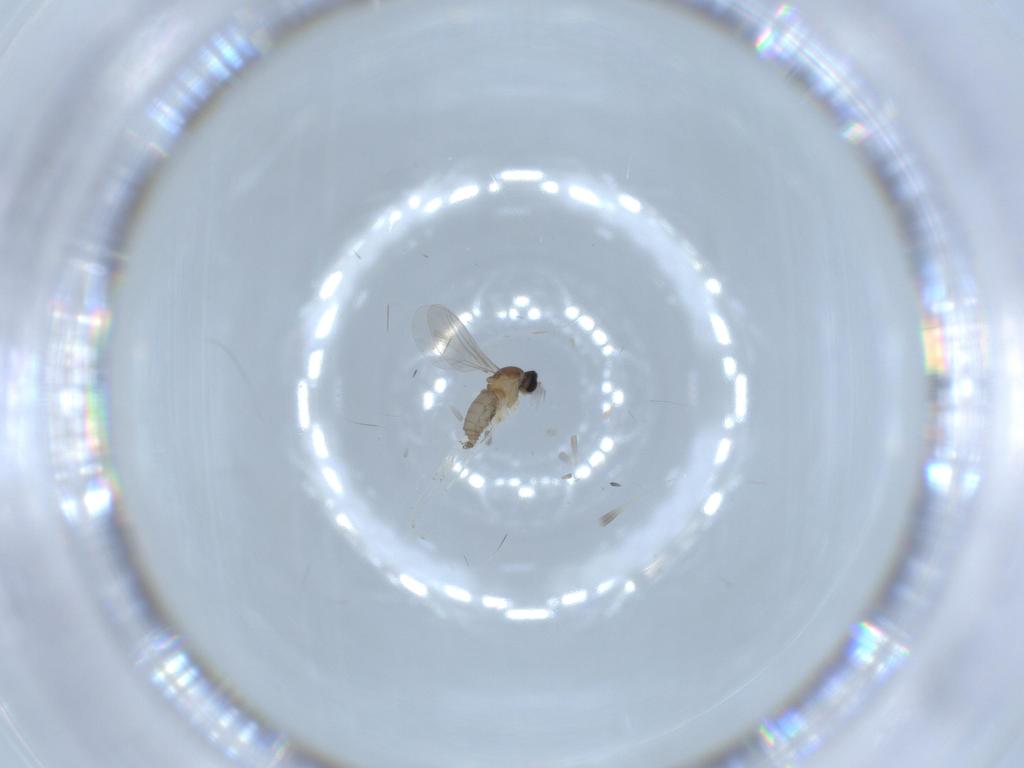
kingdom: Animalia
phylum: Arthropoda
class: Insecta
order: Diptera
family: Cecidomyiidae
